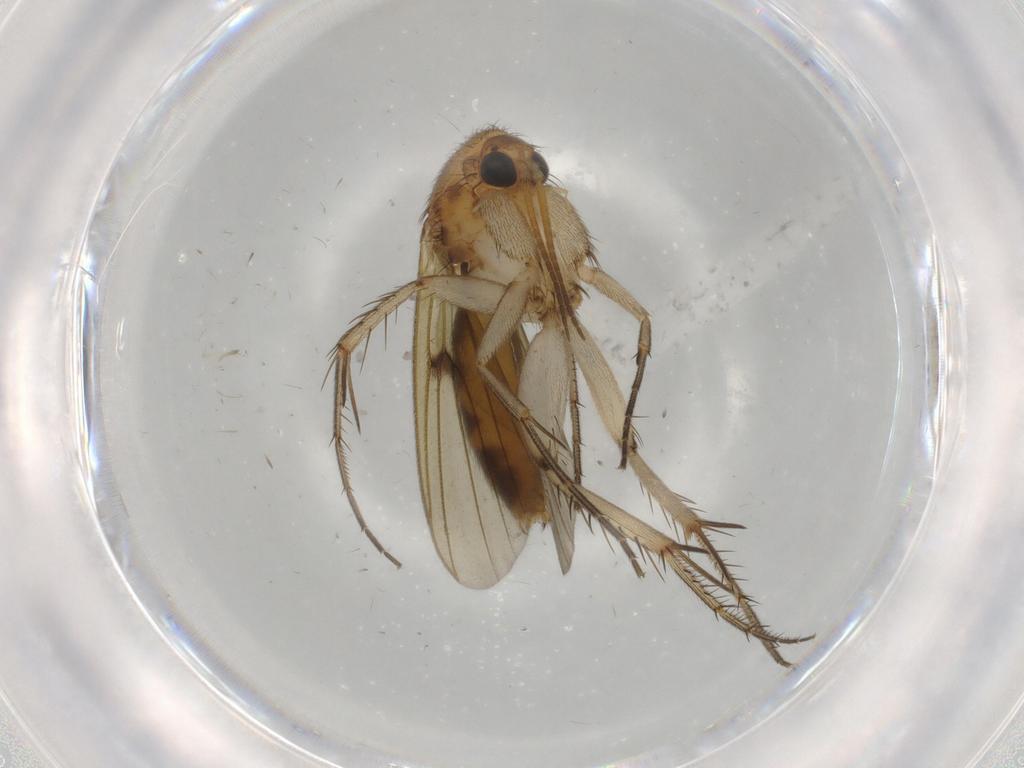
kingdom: Animalia
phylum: Arthropoda
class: Insecta
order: Diptera
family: Mycetophilidae
